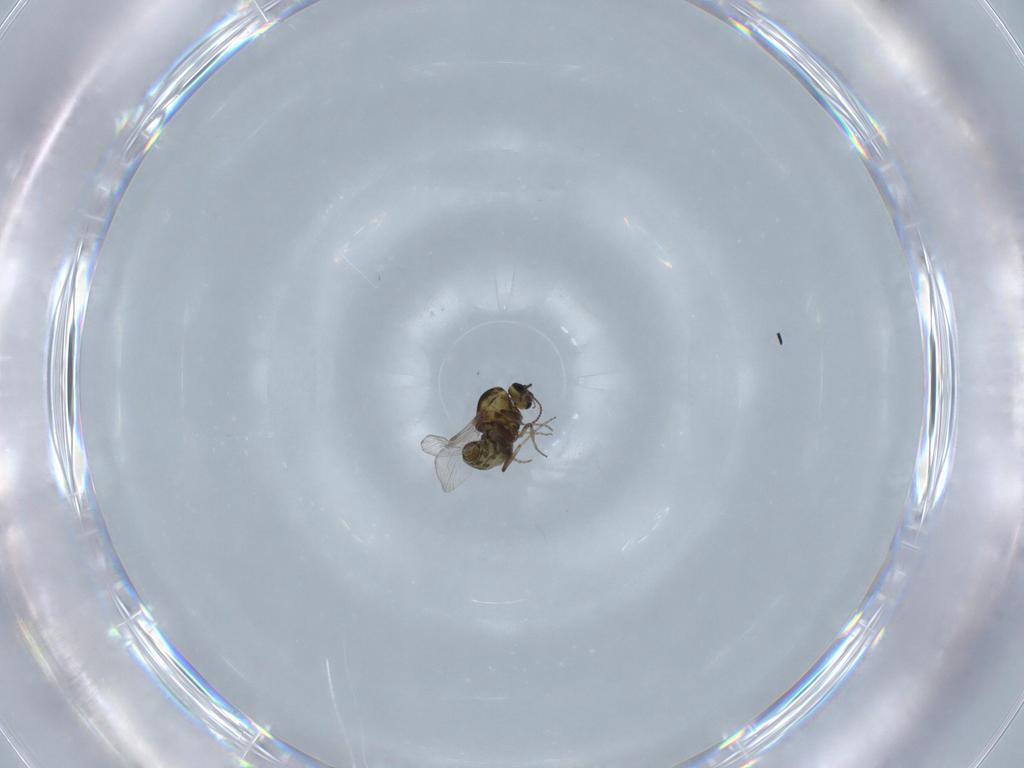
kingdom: Animalia
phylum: Arthropoda
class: Insecta
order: Diptera
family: Ceratopogonidae
